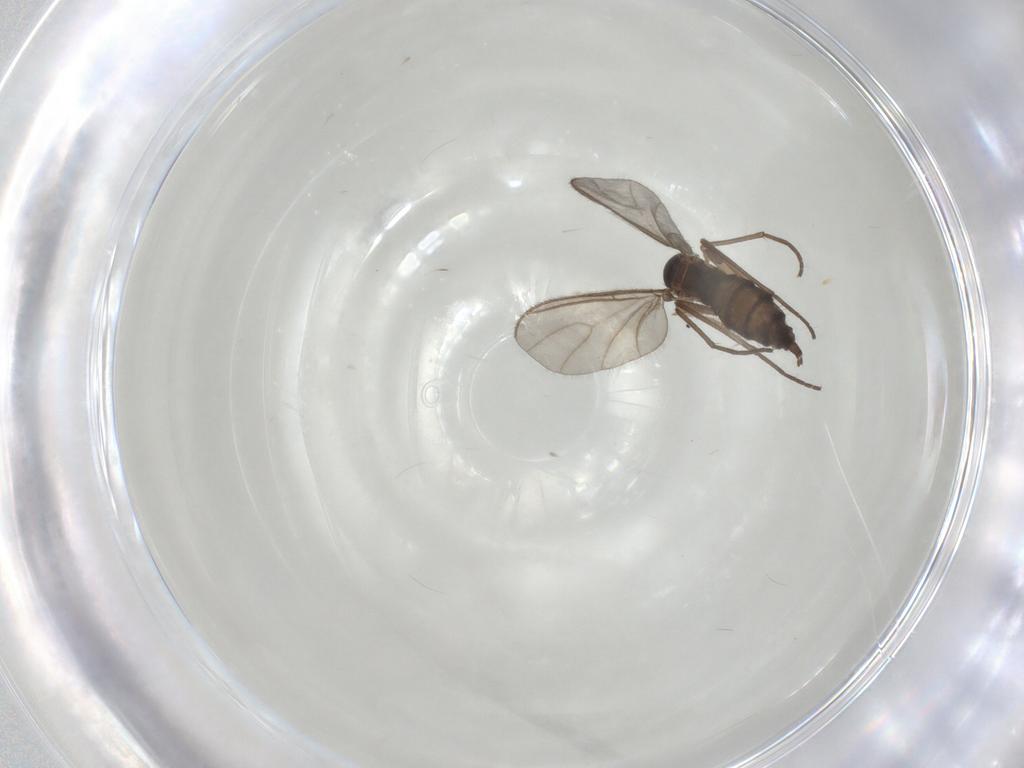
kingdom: Animalia
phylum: Arthropoda
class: Insecta
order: Diptera
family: Sciaridae
